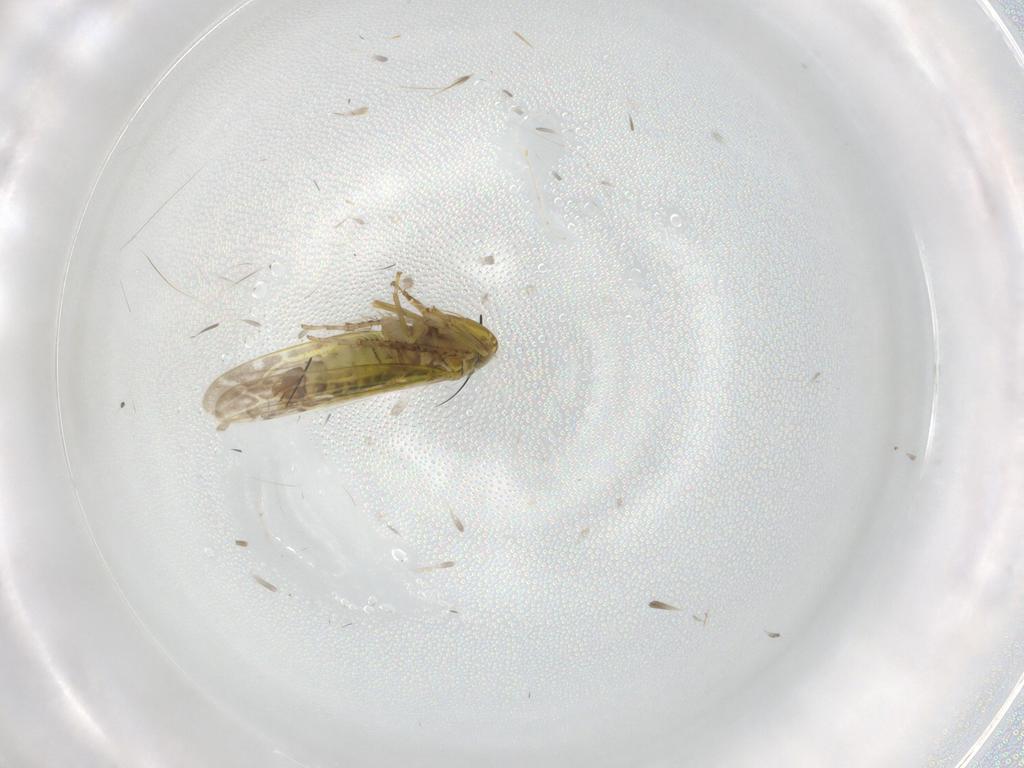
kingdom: Animalia
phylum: Arthropoda
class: Insecta
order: Hemiptera
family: Cicadellidae
